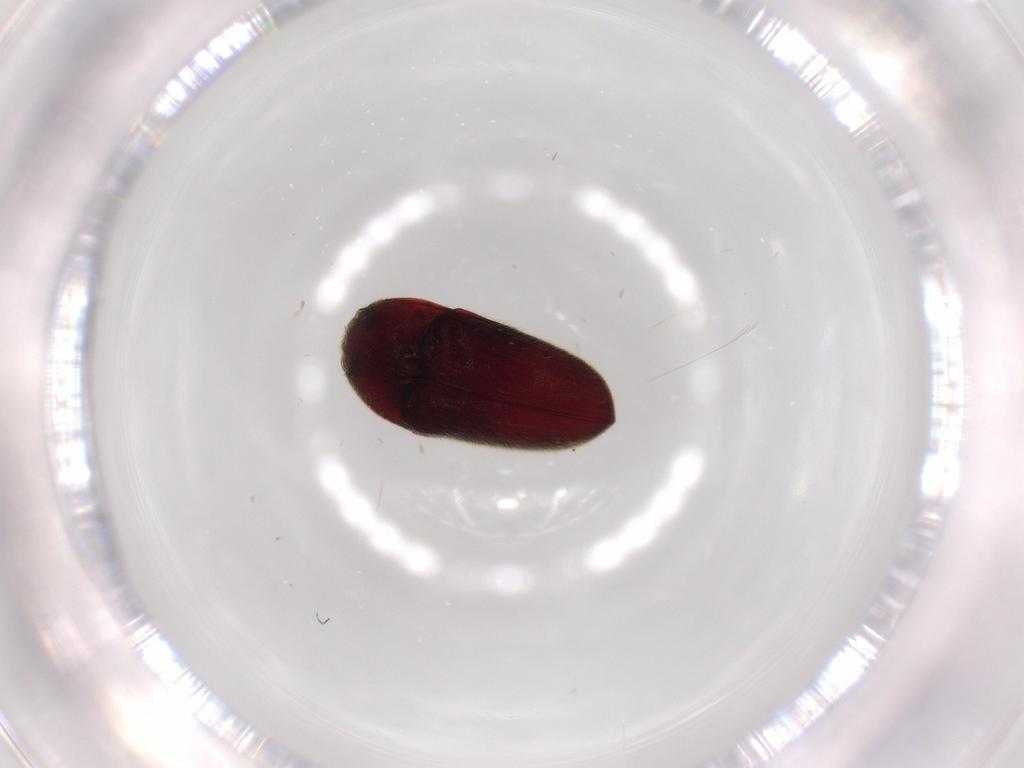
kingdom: Animalia
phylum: Arthropoda
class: Insecta
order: Coleoptera
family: Throscidae
